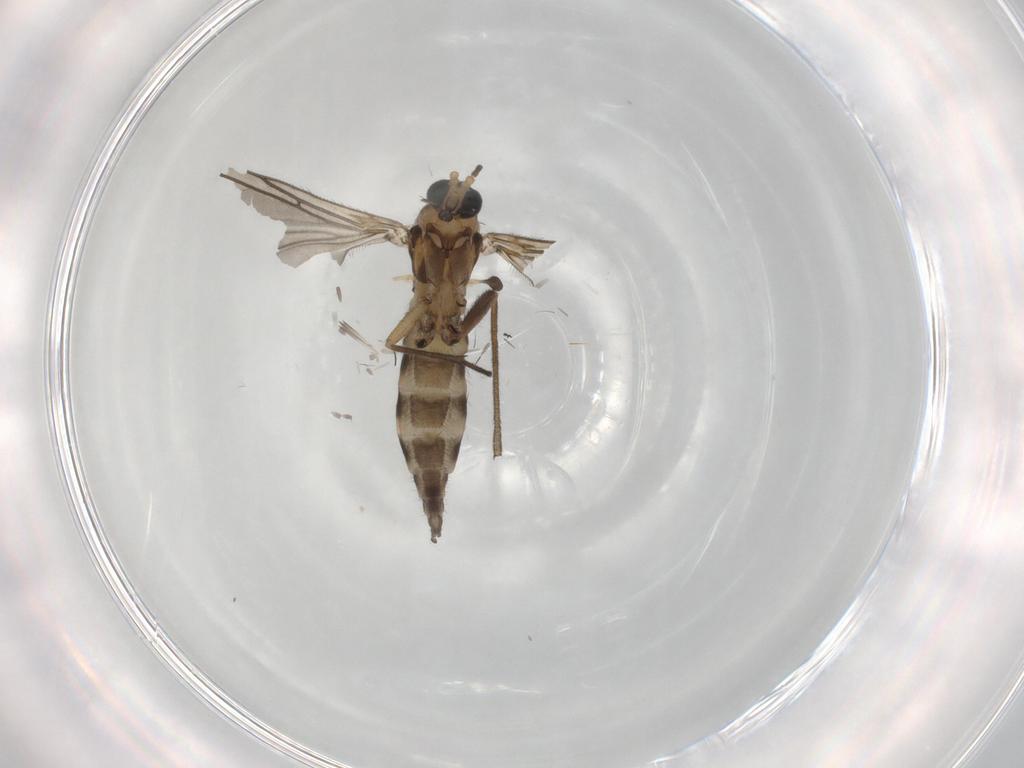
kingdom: Animalia
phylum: Arthropoda
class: Insecta
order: Diptera
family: Sciaridae
